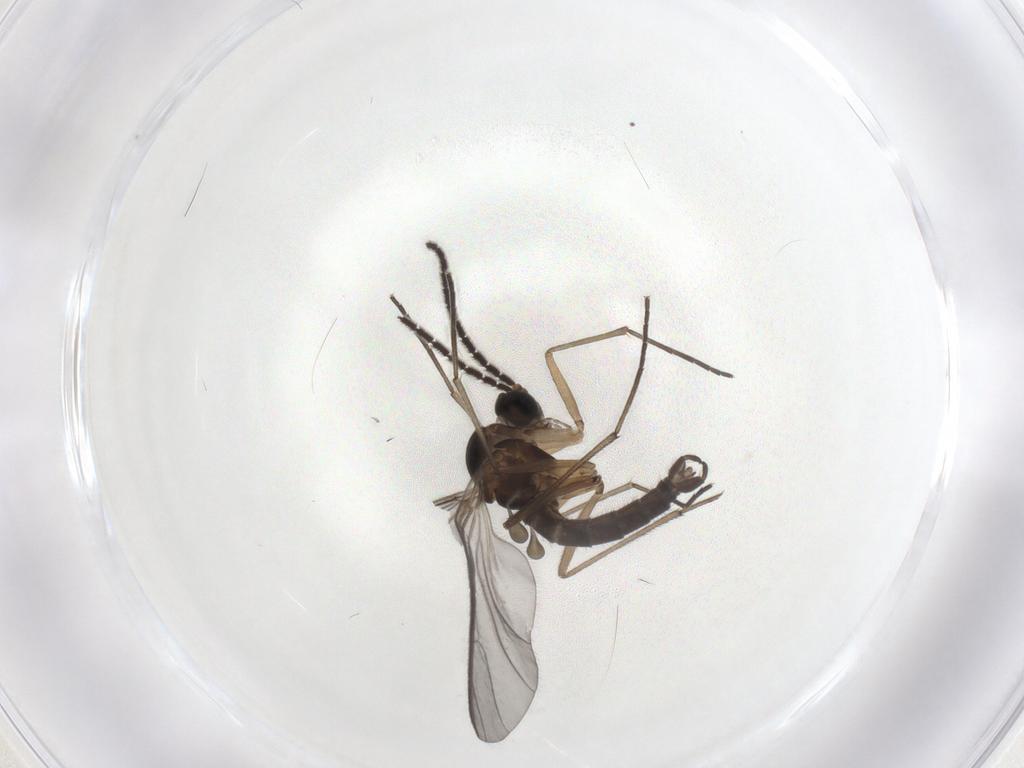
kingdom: Animalia
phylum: Arthropoda
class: Insecta
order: Diptera
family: Sciaridae
